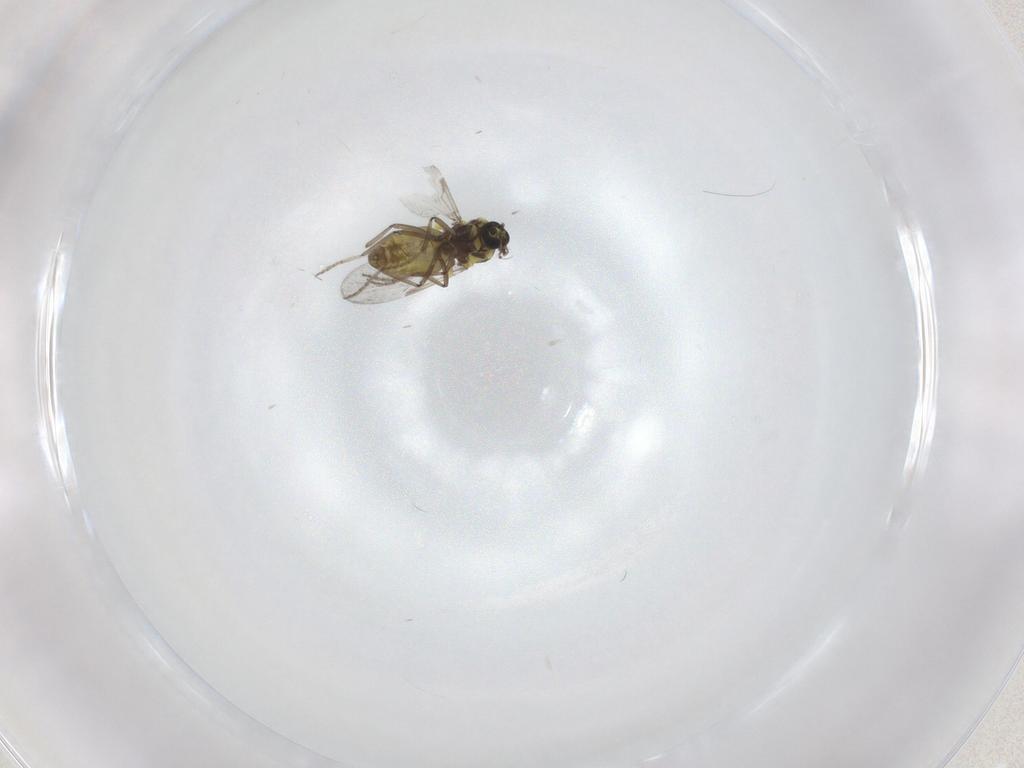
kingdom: Animalia
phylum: Arthropoda
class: Insecta
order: Diptera
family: Ceratopogonidae
